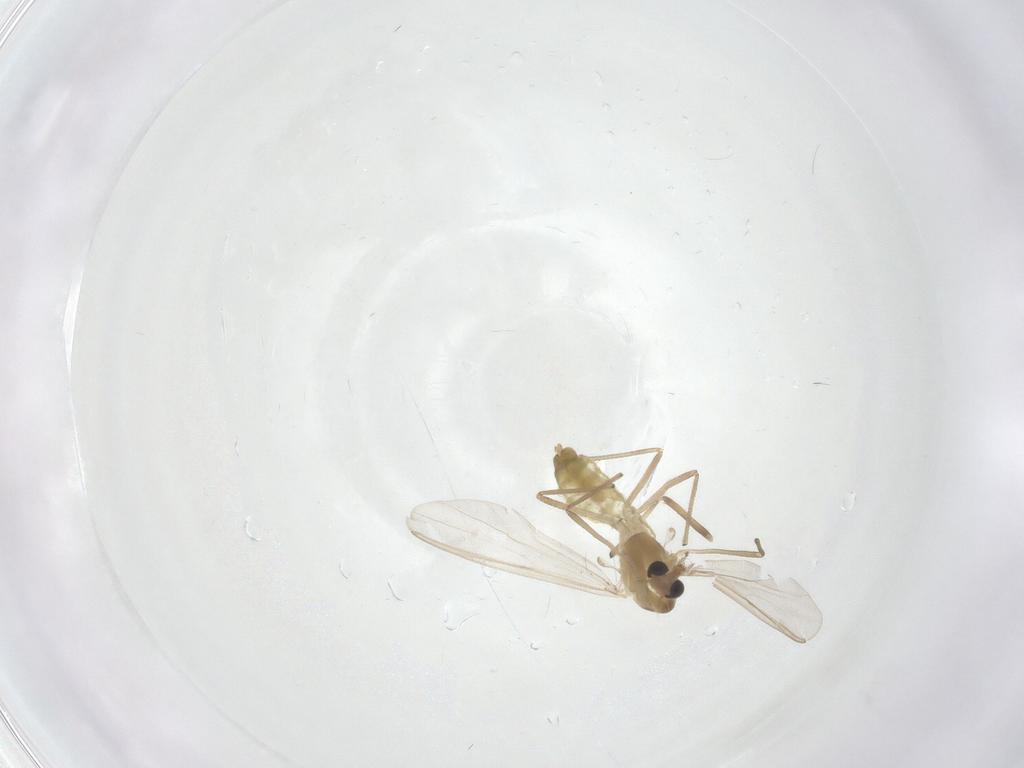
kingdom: Animalia
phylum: Arthropoda
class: Insecta
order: Diptera
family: Chironomidae
